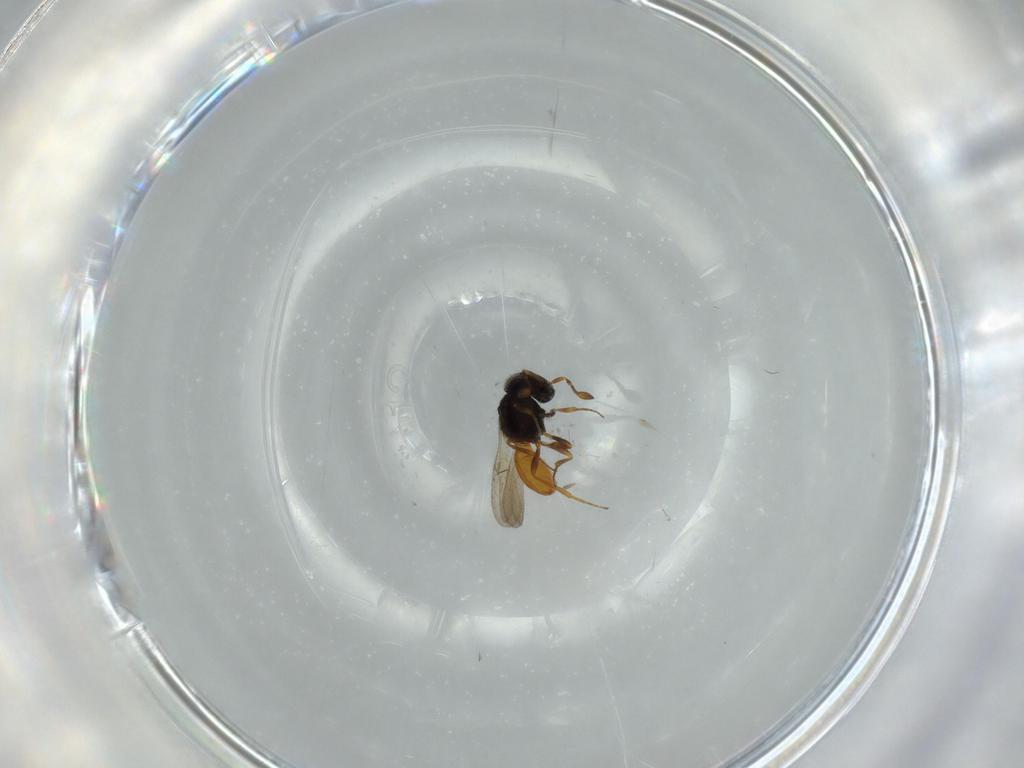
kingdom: Animalia
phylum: Arthropoda
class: Insecta
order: Hymenoptera
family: Scelionidae
